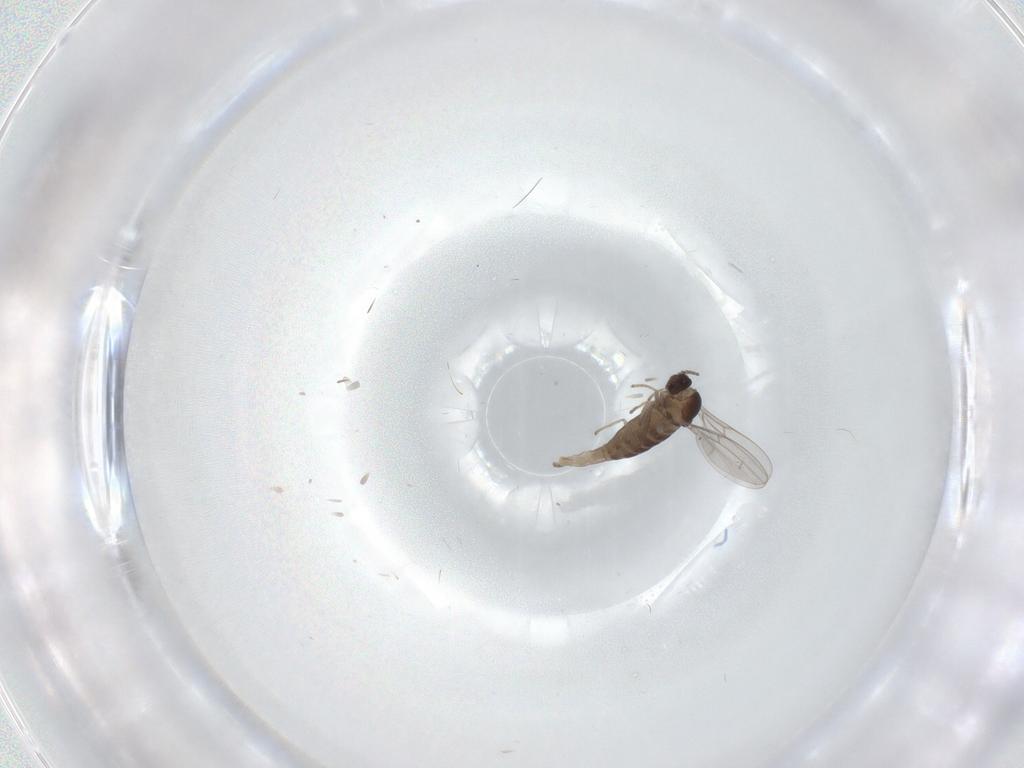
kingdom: Animalia
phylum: Arthropoda
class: Insecta
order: Diptera
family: Cecidomyiidae
